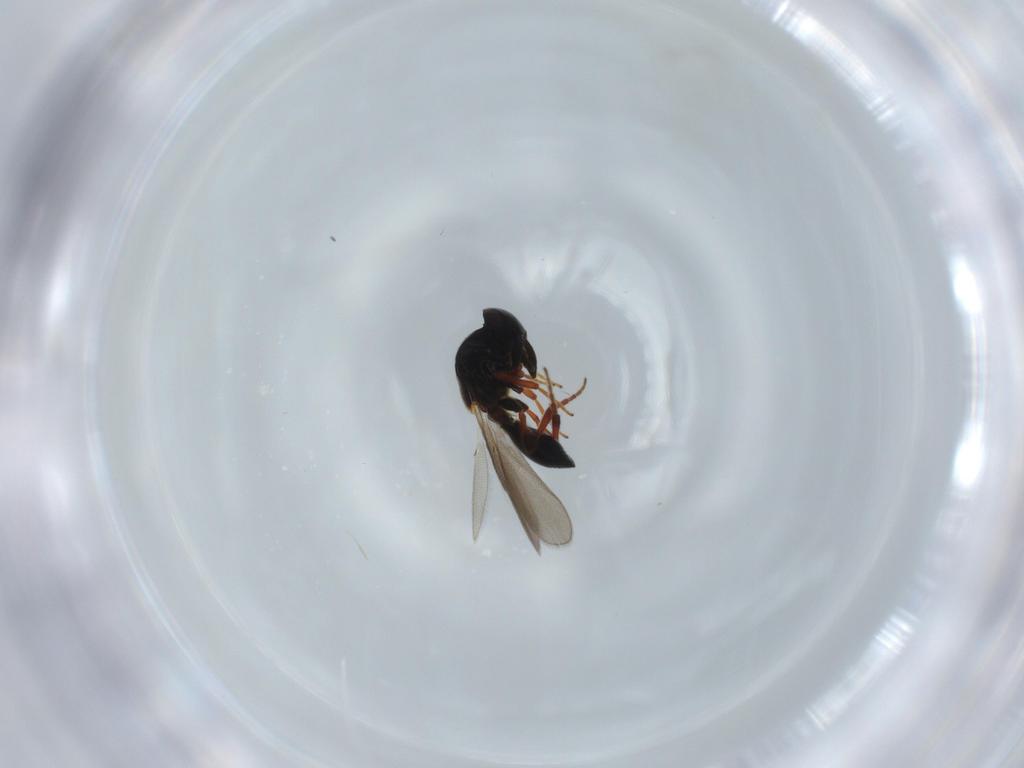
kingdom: Animalia
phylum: Arthropoda
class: Insecta
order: Hymenoptera
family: Platygastridae
